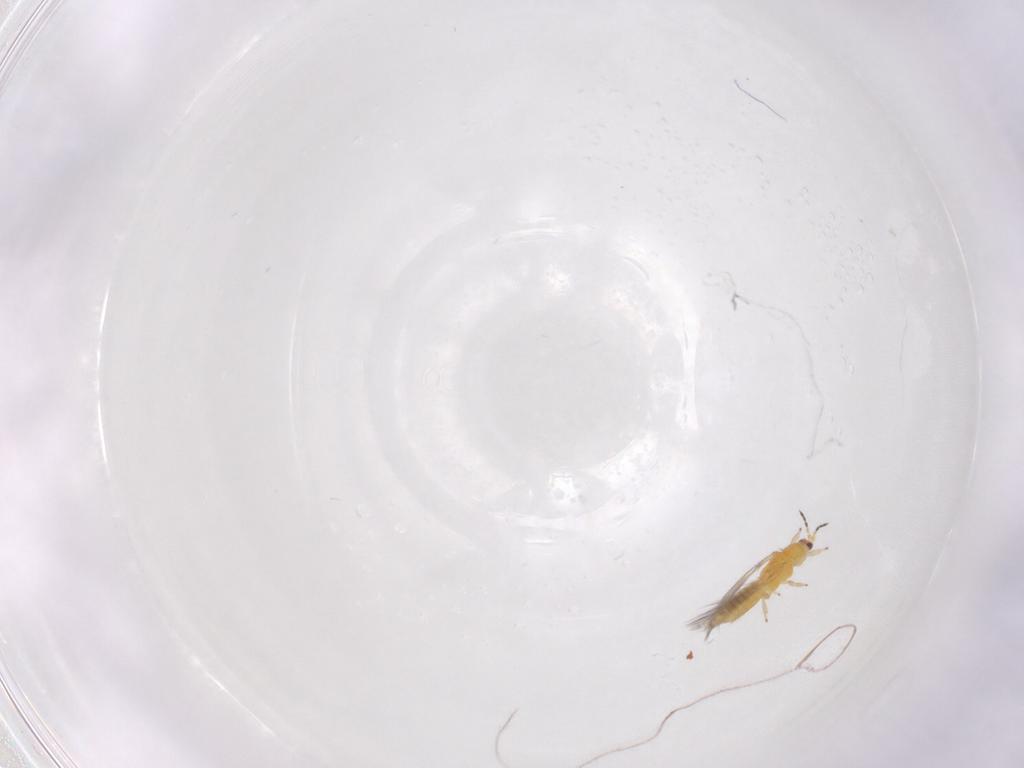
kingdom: Animalia
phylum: Arthropoda
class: Insecta
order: Thysanoptera
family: Thripidae
